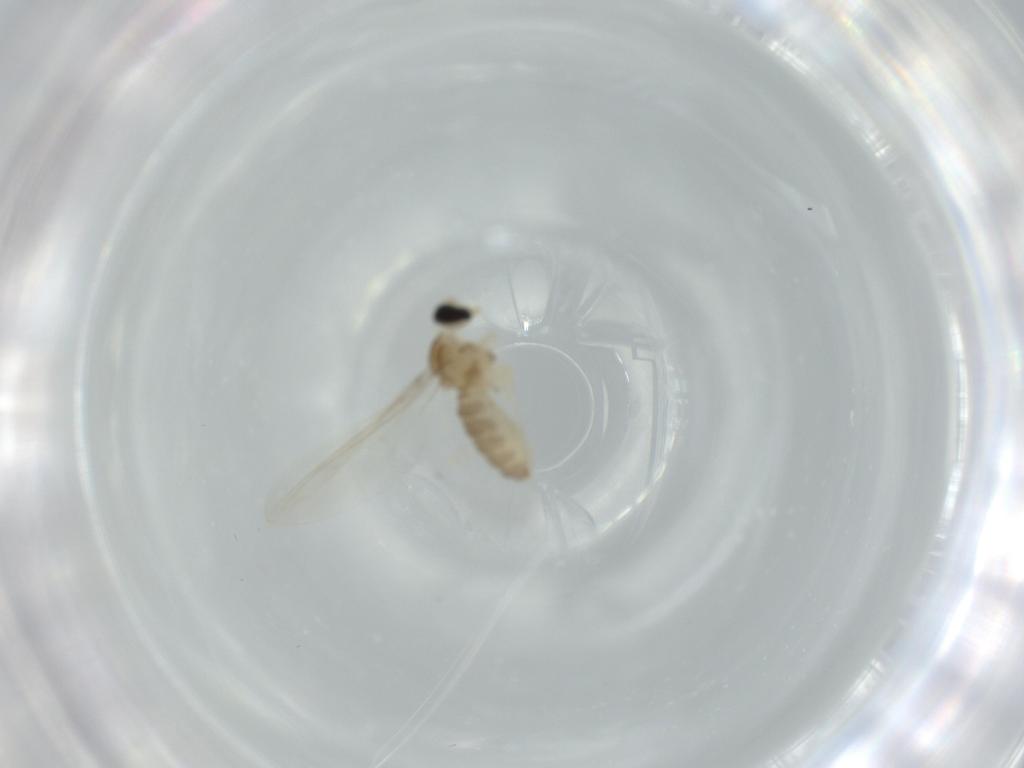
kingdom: Animalia
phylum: Arthropoda
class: Insecta
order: Diptera
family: Cecidomyiidae
